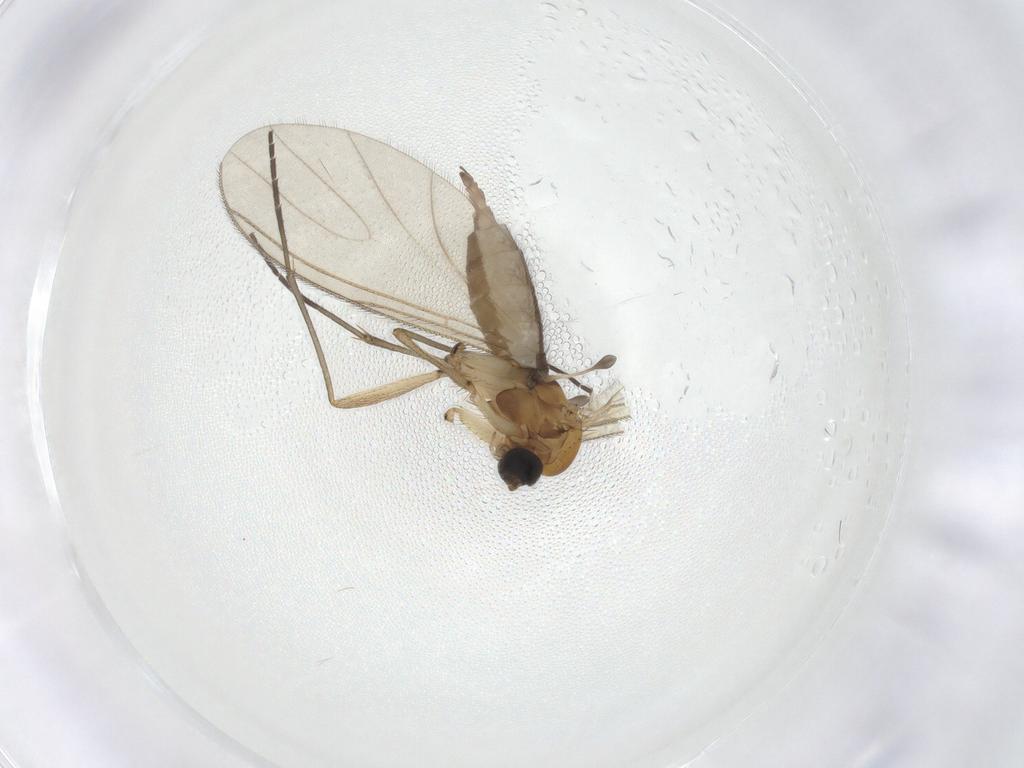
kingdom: Animalia
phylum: Arthropoda
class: Insecta
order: Diptera
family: Sciaridae
